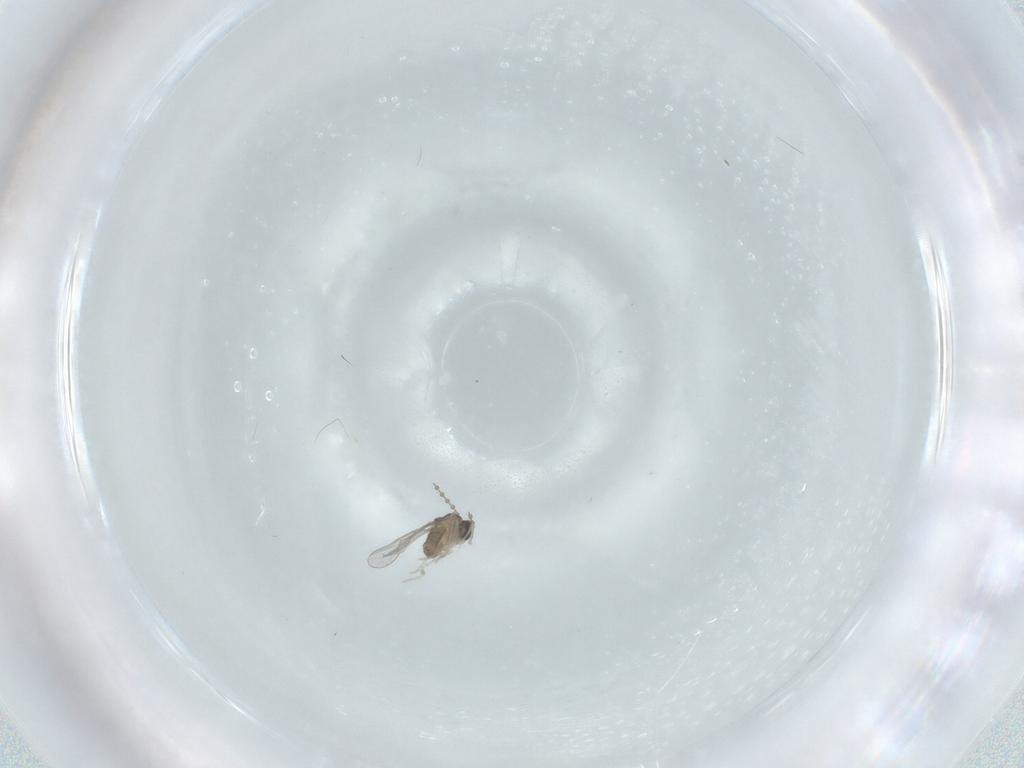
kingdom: Animalia
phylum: Arthropoda
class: Insecta
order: Diptera
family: Cecidomyiidae
